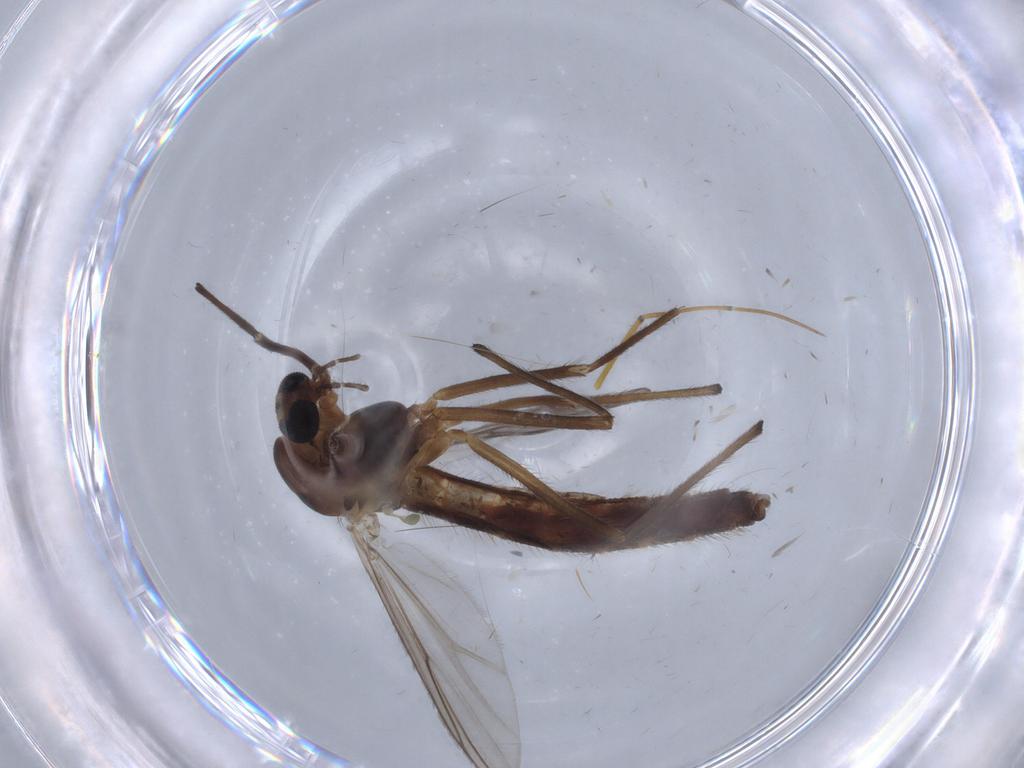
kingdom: Animalia
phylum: Arthropoda
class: Insecta
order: Diptera
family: Chironomidae
